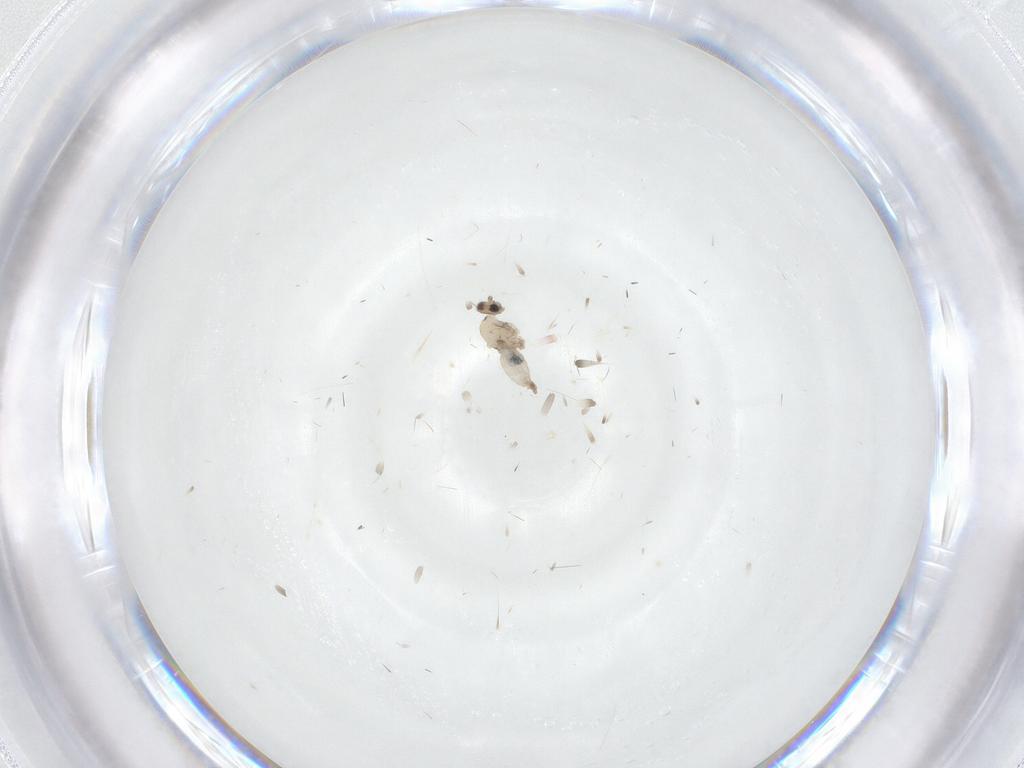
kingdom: Animalia
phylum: Arthropoda
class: Insecta
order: Diptera
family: Cecidomyiidae
